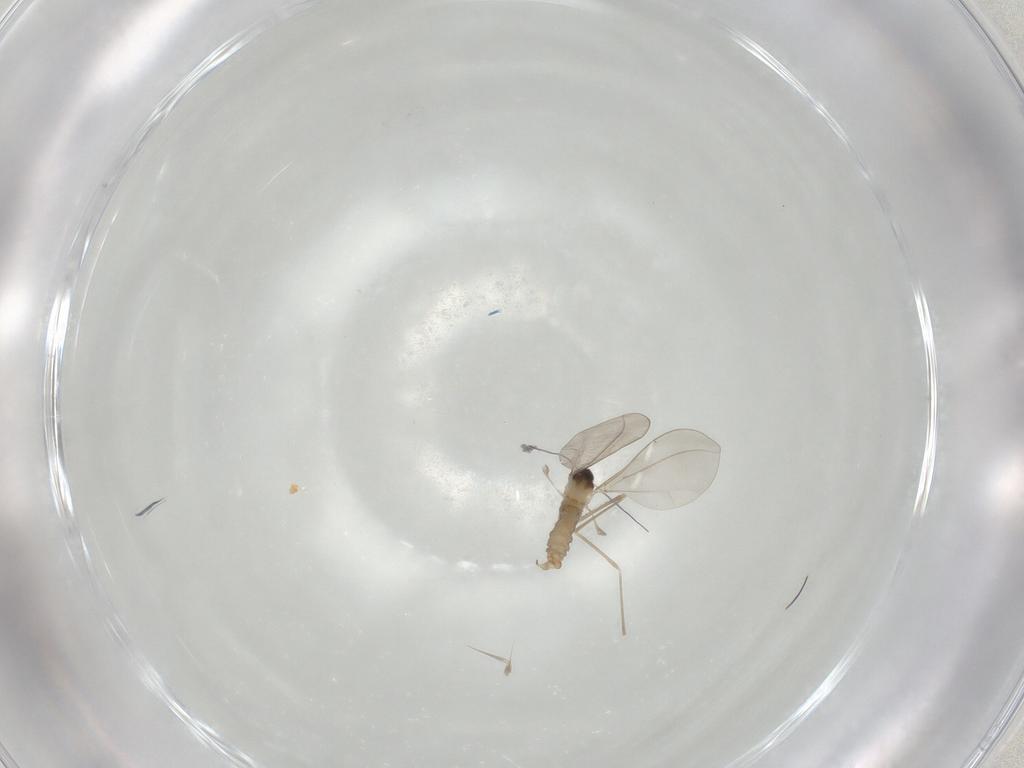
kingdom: Animalia
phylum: Arthropoda
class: Insecta
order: Diptera
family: Cecidomyiidae
